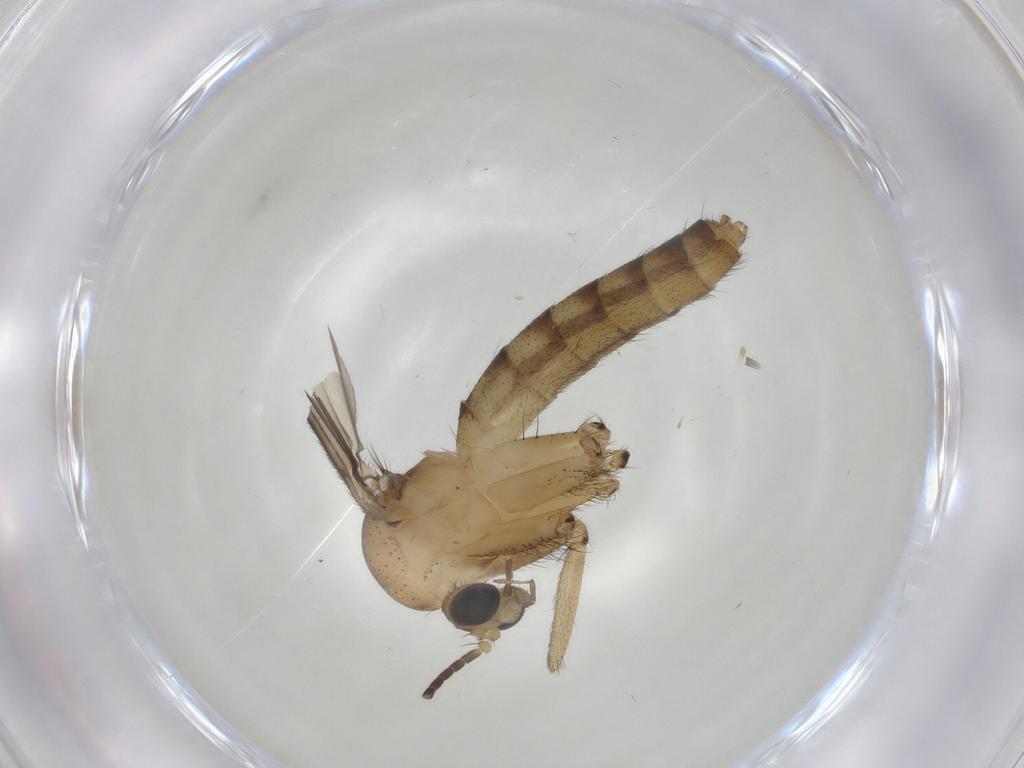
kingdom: Animalia
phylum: Arthropoda
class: Insecta
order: Diptera
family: Mycetophilidae
